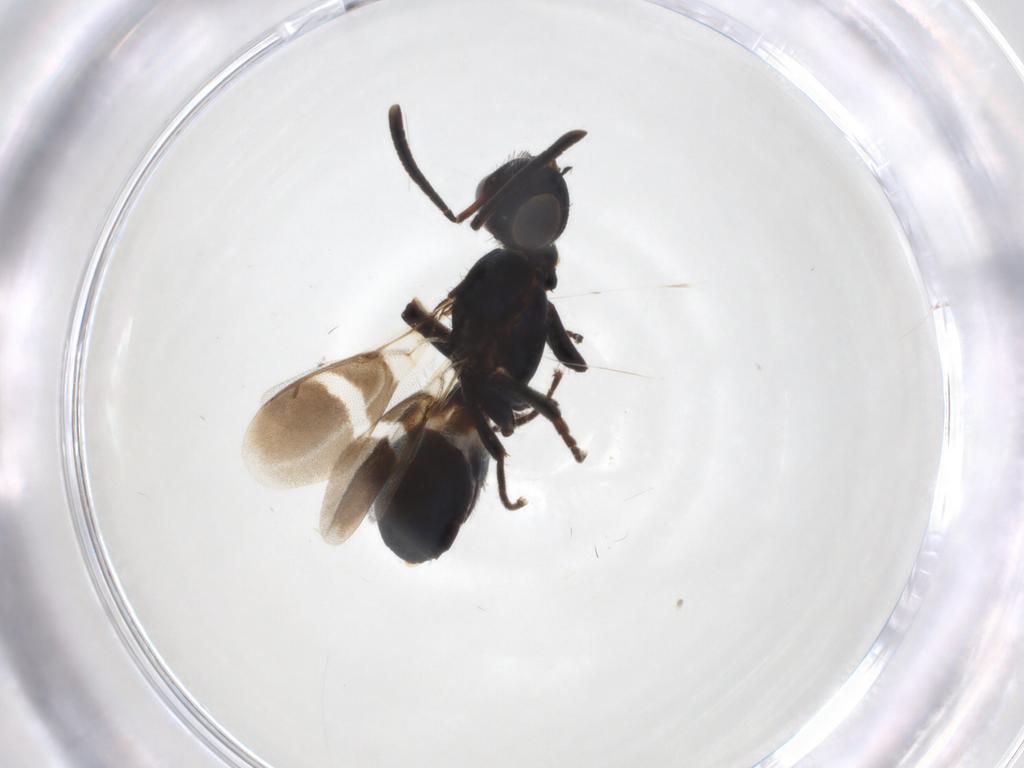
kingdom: Animalia
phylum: Arthropoda
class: Insecta
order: Hymenoptera
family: Eupelmidae
